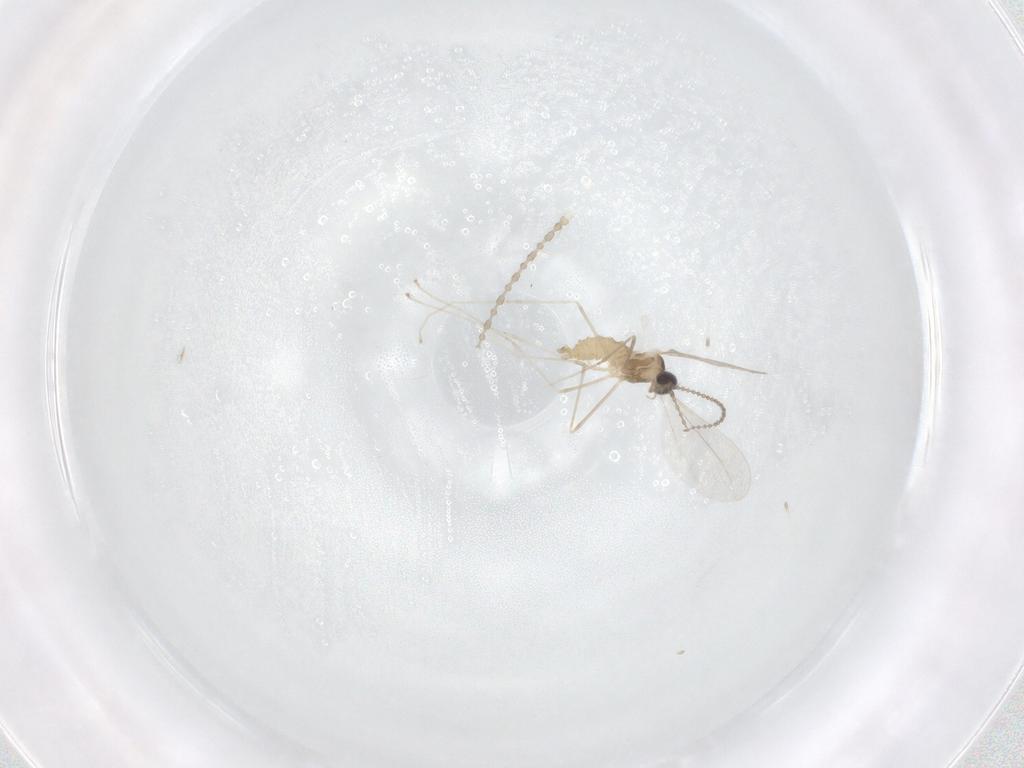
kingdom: Animalia
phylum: Arthropoda
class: Insecta
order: Diptera
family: Cecidomyiidae
